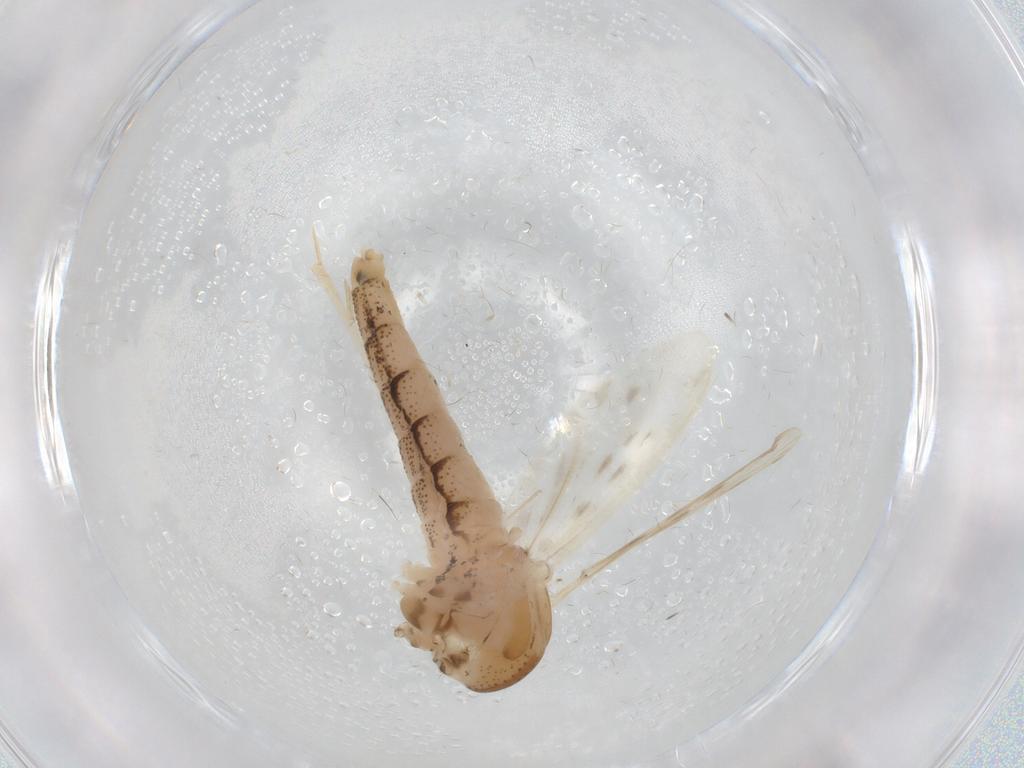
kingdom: Animalia
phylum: Arthropoda
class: Insecta
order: Diptera
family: Chaoboridae
